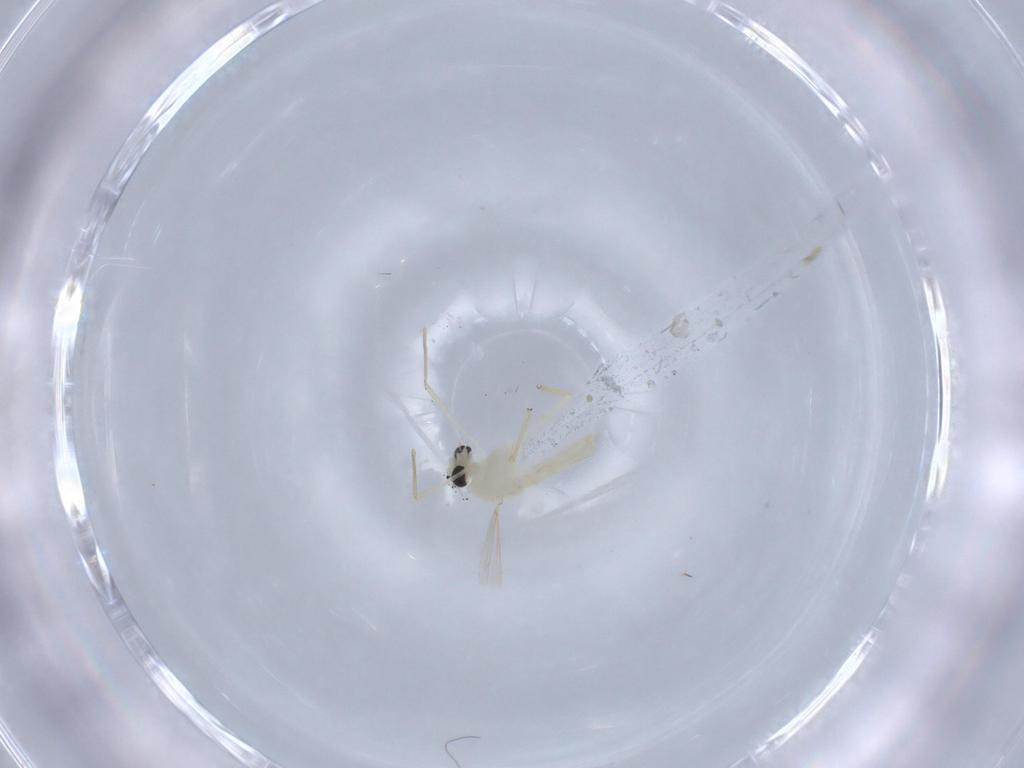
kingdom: Animalia
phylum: Arthropoda
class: Insecta
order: Diptera
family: Chironomidae
